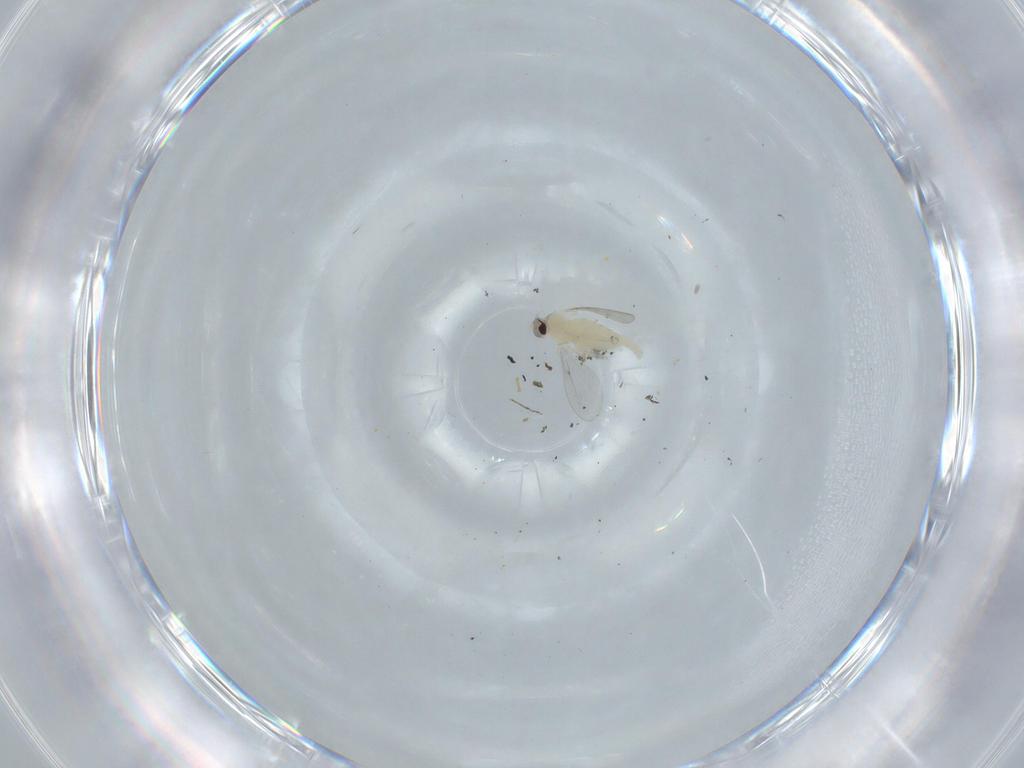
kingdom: Animalia
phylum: Arthropoda
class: Insecta
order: Diptera
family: Cecidomyiidae
